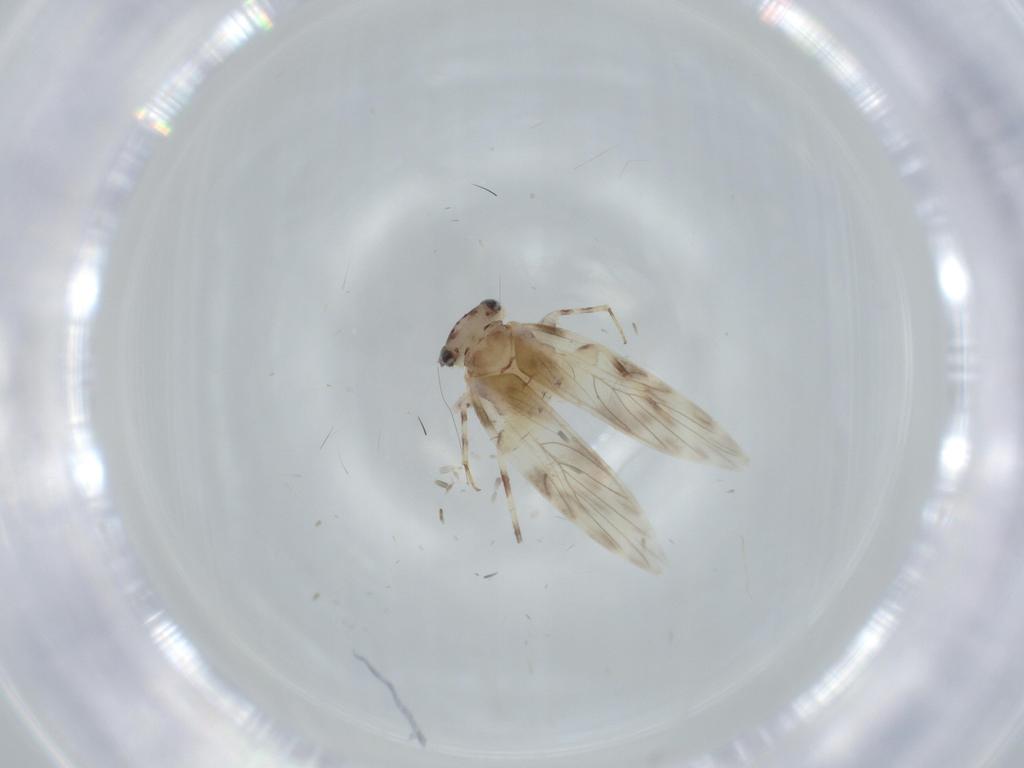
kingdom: Animalia
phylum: Arthropoda
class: Insecta
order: Psocodea
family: Lepidopsocidae
